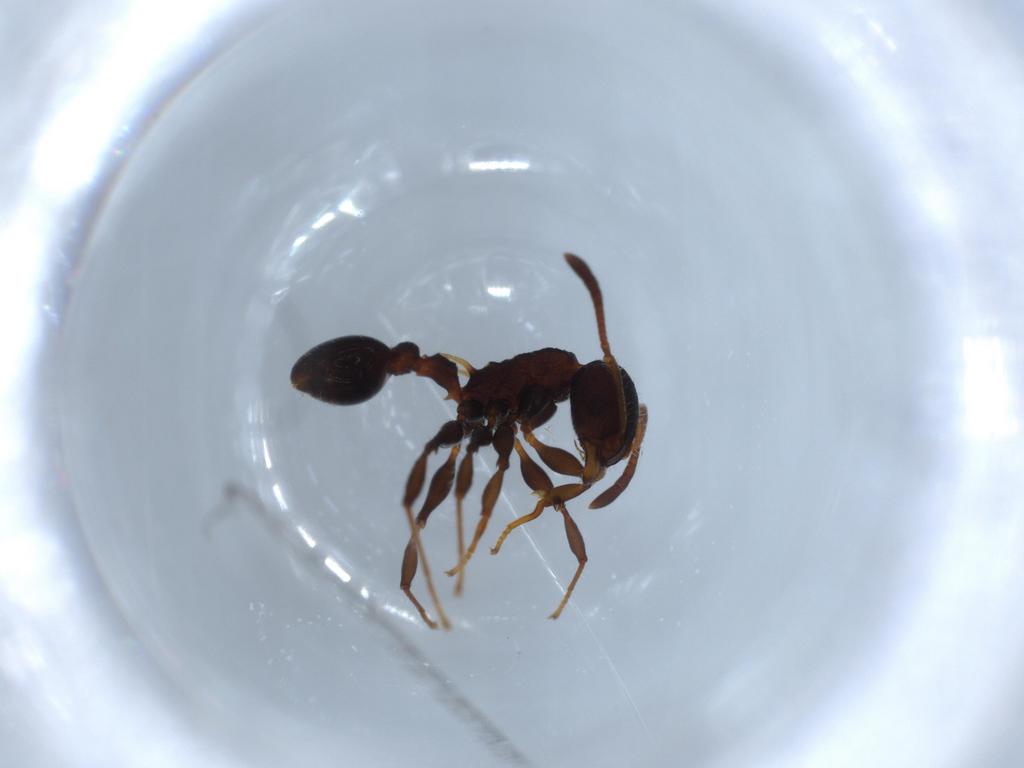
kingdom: Animalia
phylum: Arthropoda
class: Insecta
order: Hymenoptera
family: Formicidae
